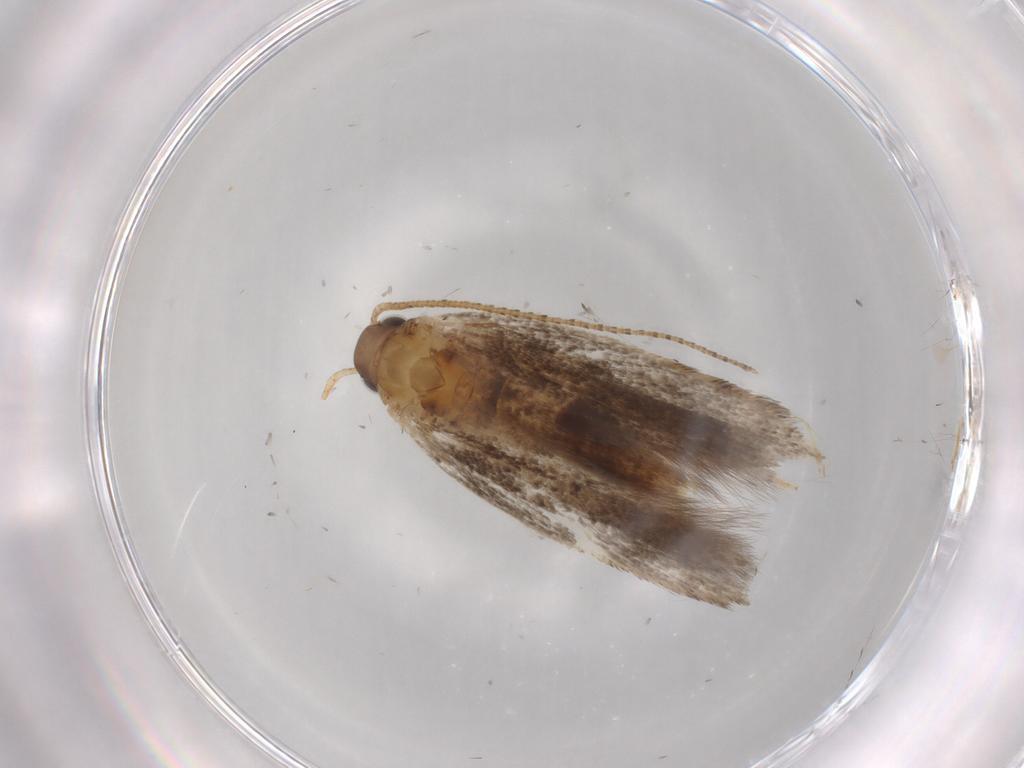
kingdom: Animalia
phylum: Arthropoda
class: Insecta
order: Lepidoptera
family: Gelechiidae
